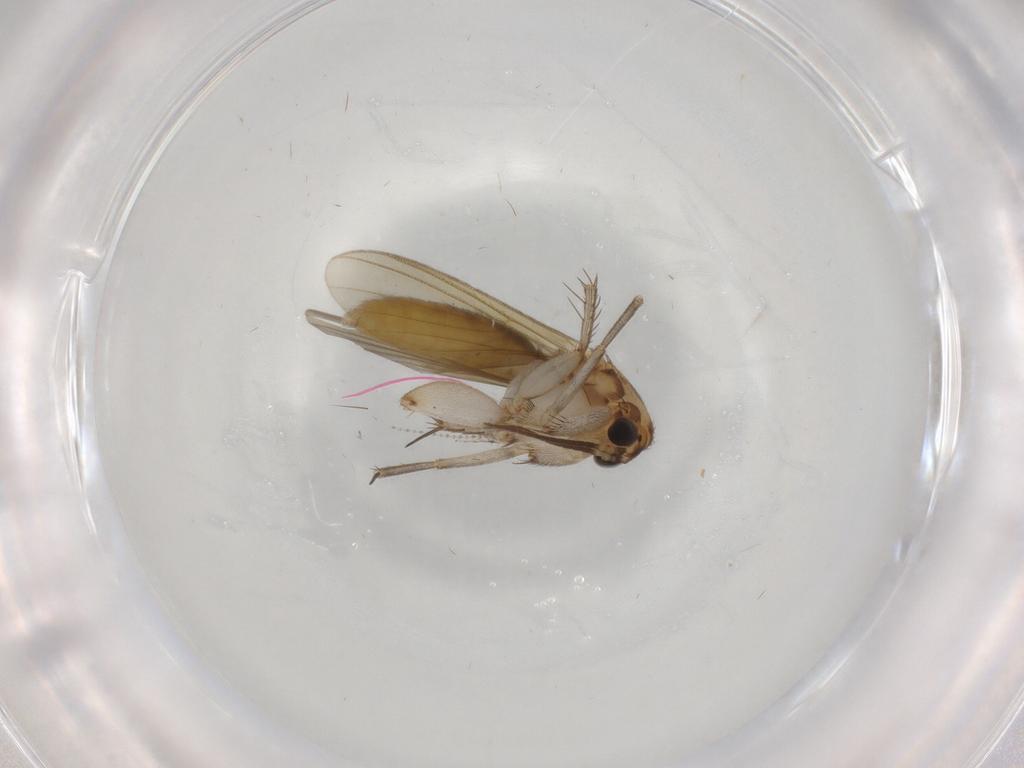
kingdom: Animalia
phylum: Arthropoda
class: Insecta
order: Diptera
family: Mycetophilidae
